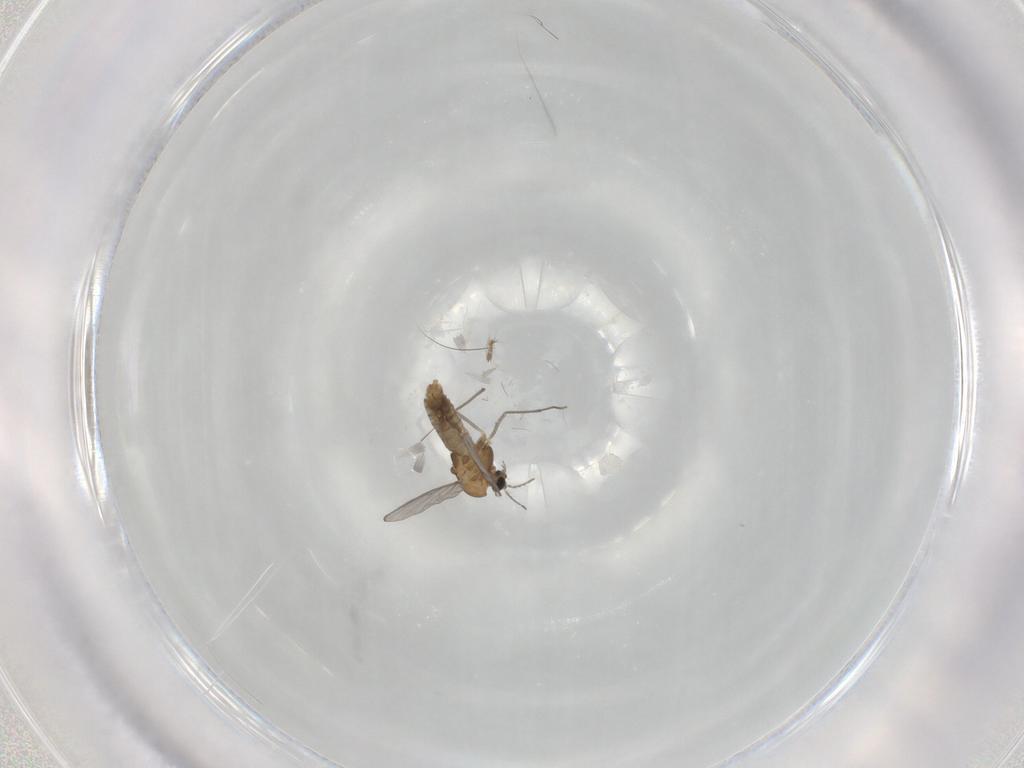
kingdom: Animalia
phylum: Arthropoda
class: Insecta
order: Diptera
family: Chironomidae
